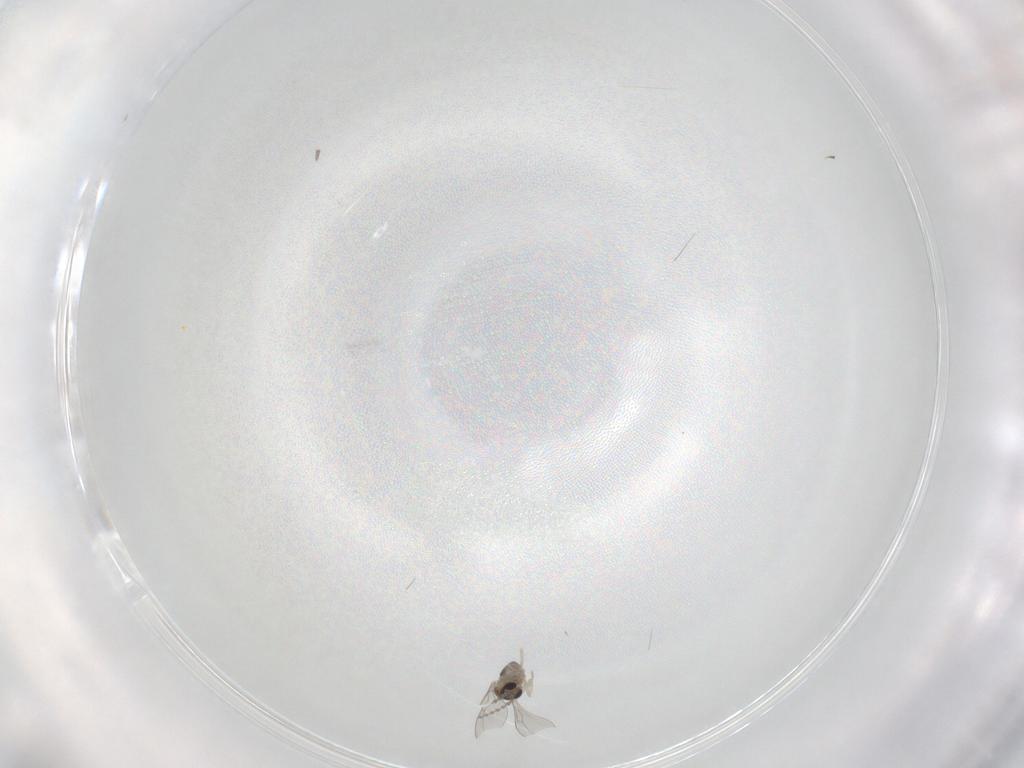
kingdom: Animalia
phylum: Arthropoda
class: Insecta
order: Diptera
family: Cecidomyiidae
